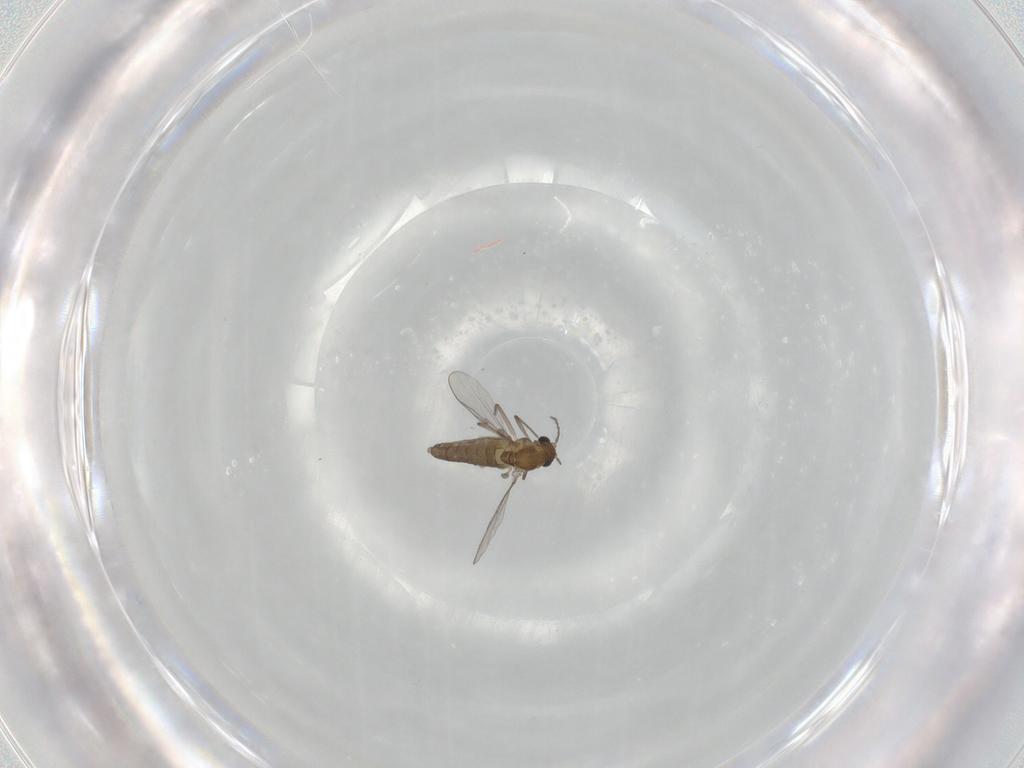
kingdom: Animalia
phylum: Arthropoda
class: Insecta
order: Diptera
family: Chironomidae
